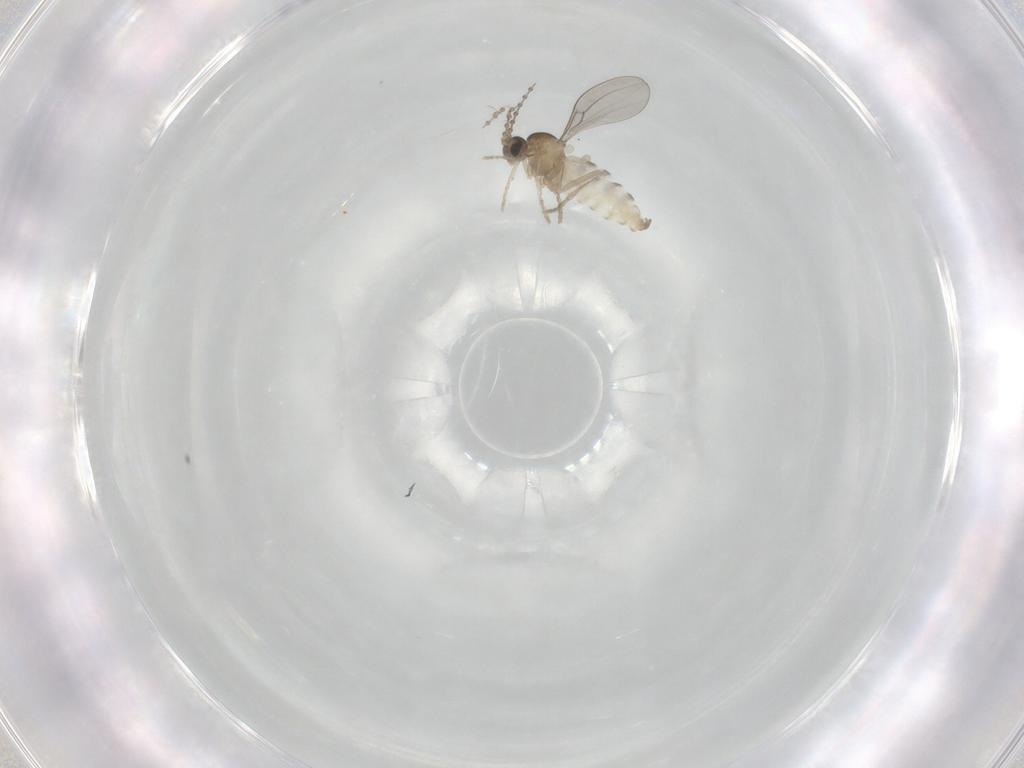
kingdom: Animalia
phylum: Arthropoda
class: Insecta
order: Diptera
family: Cecidomyiidae
